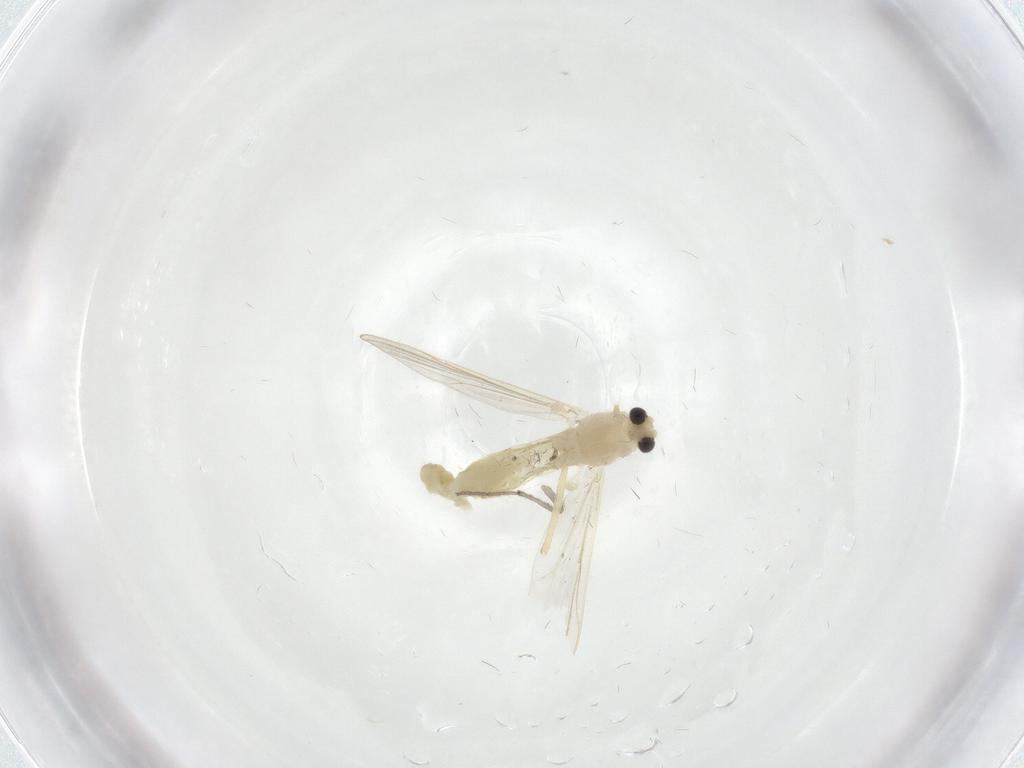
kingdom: Animalia
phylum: Arthropoda
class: Insecta
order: Diptera
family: Chironomidae
